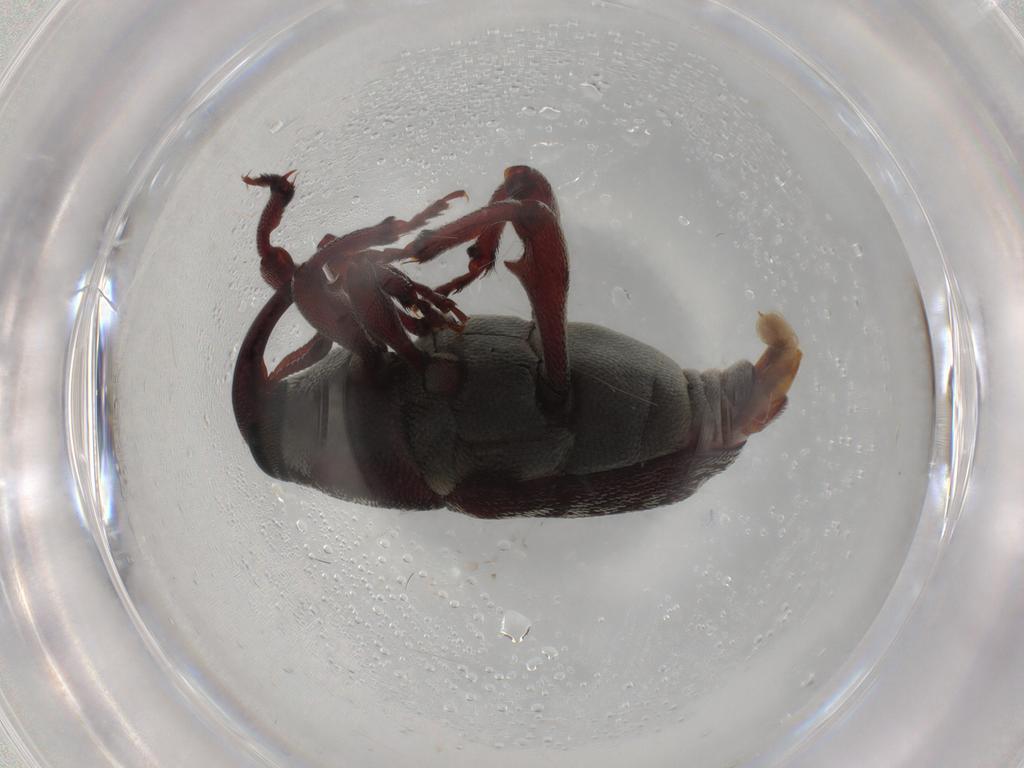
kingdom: Animalia
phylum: Arthropoda
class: Insecta
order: Coleoptera
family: Curculionidae
